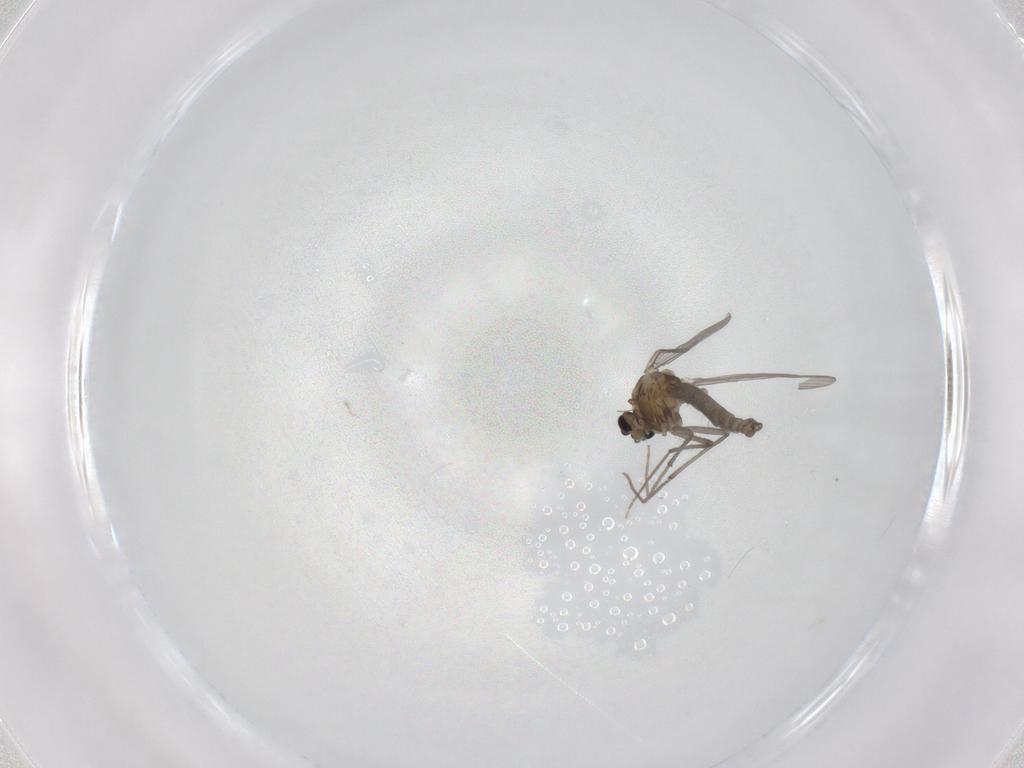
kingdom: Animalia
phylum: Arthropoda
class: Insecta
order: Diptera
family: Chironomidae
